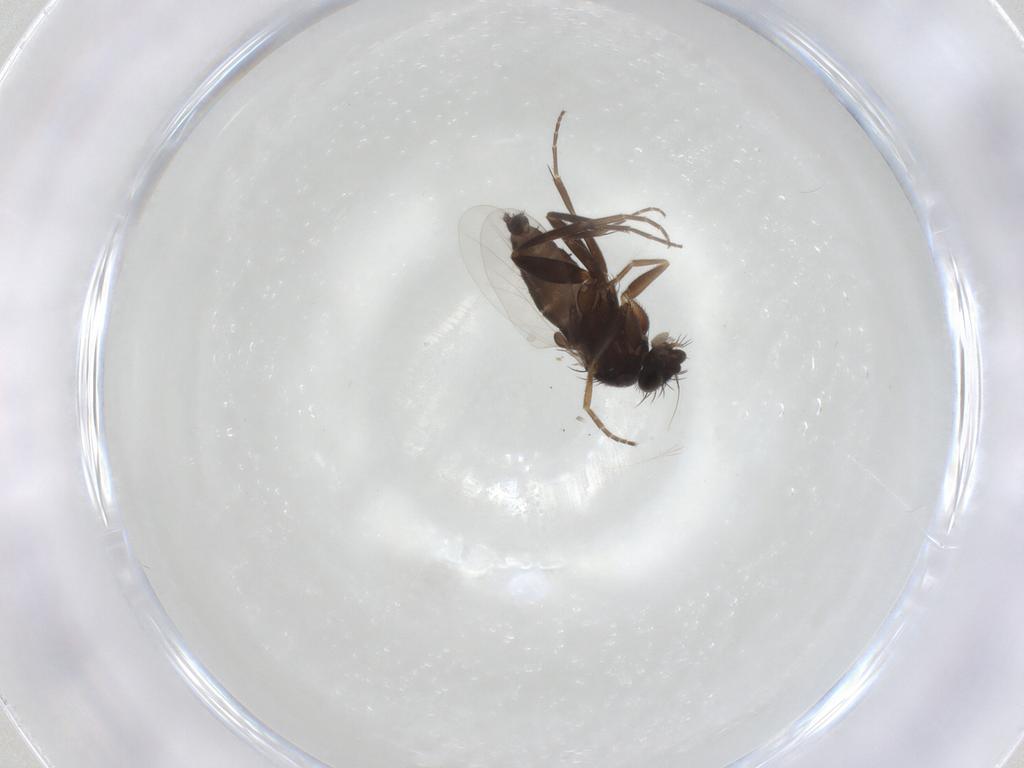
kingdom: Animalia
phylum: Arthropoda
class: Insecta
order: Diptera
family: Phoridae
